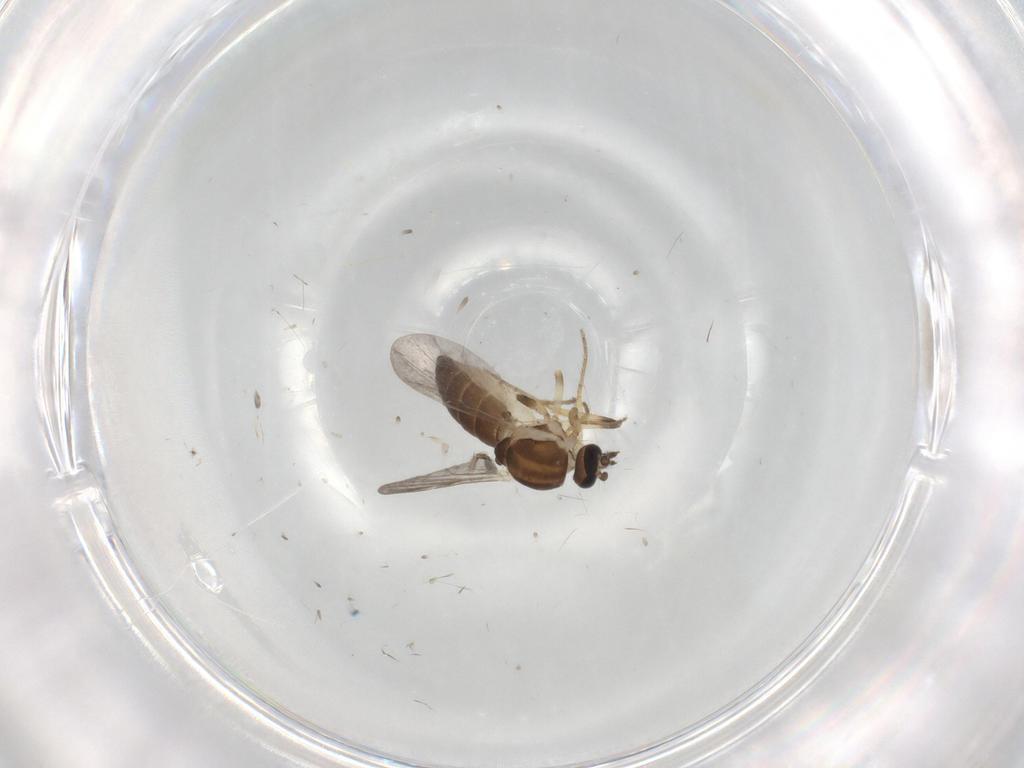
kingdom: Animalia
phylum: Arthropoda
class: Insecta
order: Diptera
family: Ceratopogonidae
